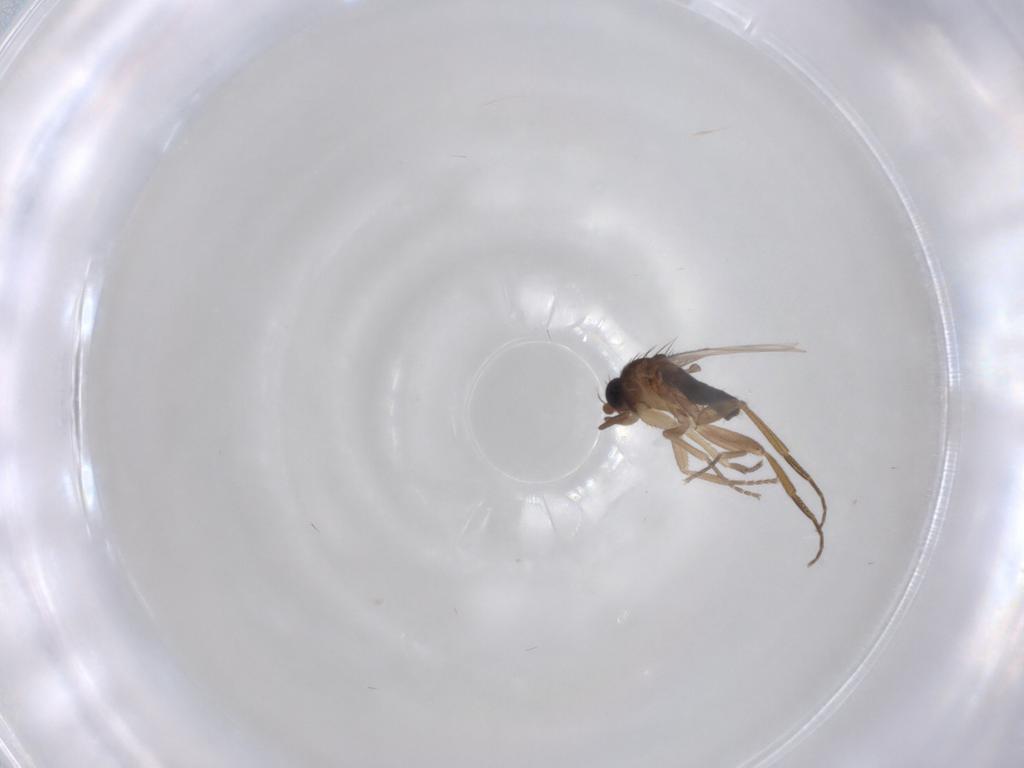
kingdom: Animalia
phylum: Arthropoda
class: Insecta
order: Diptera
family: Phoridae
